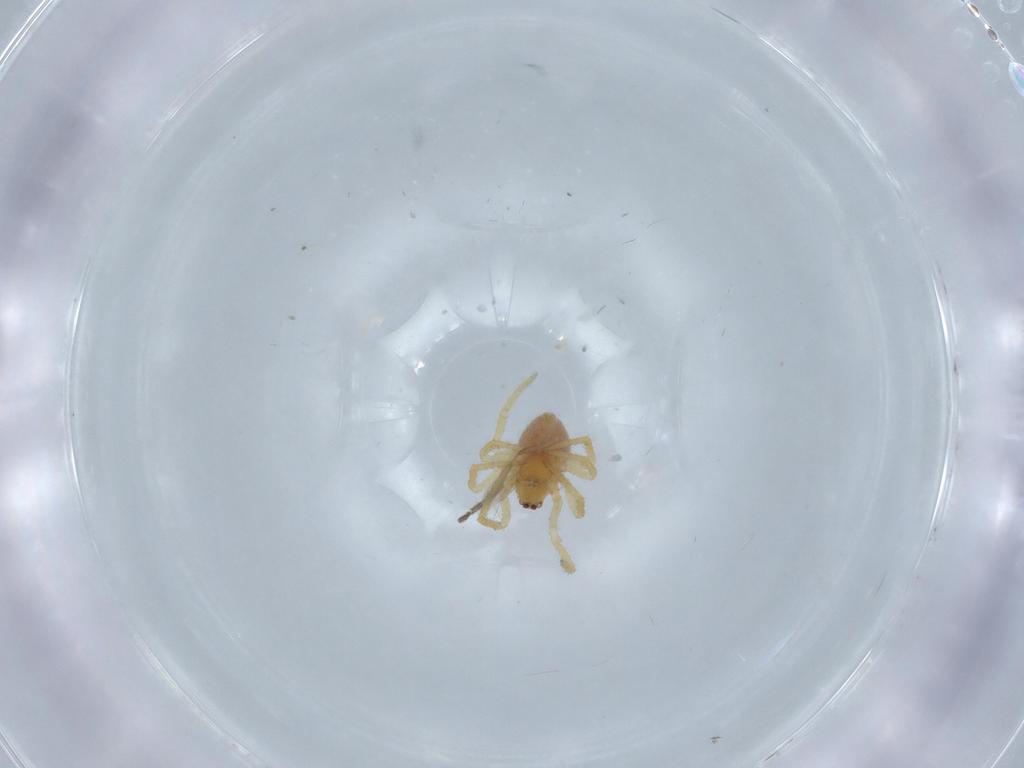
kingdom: Animalia
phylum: Arthropoda
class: Arachnida
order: Araneae
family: Theridiidae
